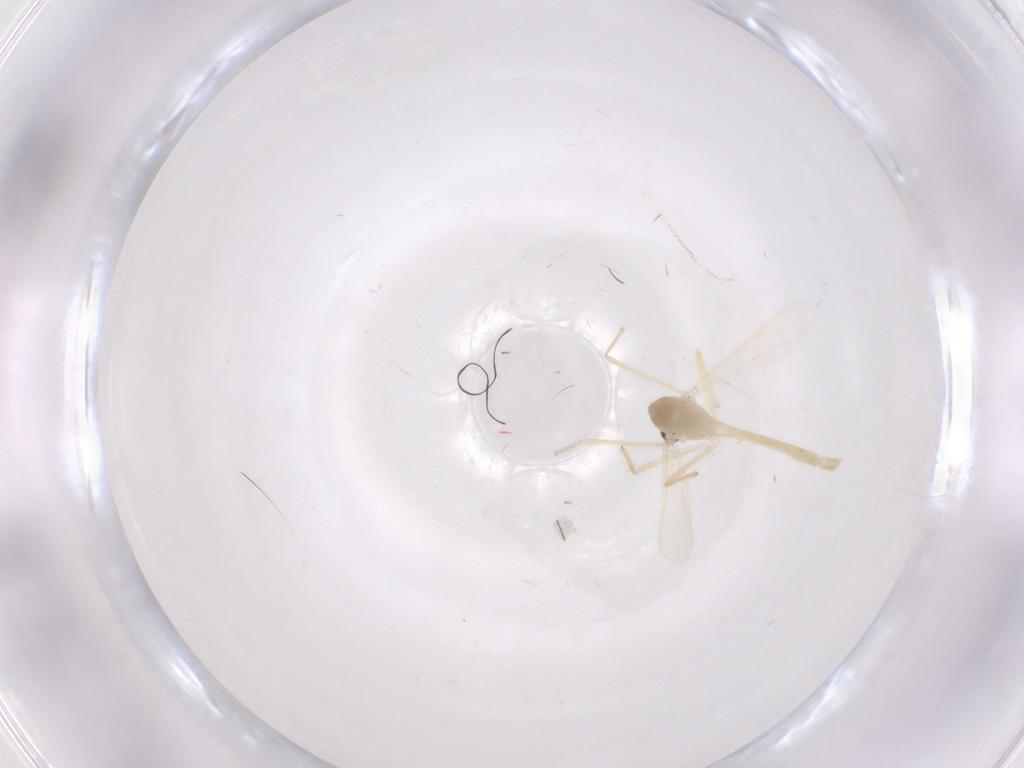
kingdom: Animalia
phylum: Arthropoda
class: Insecta
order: Diptera
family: Cecidomyiidae
